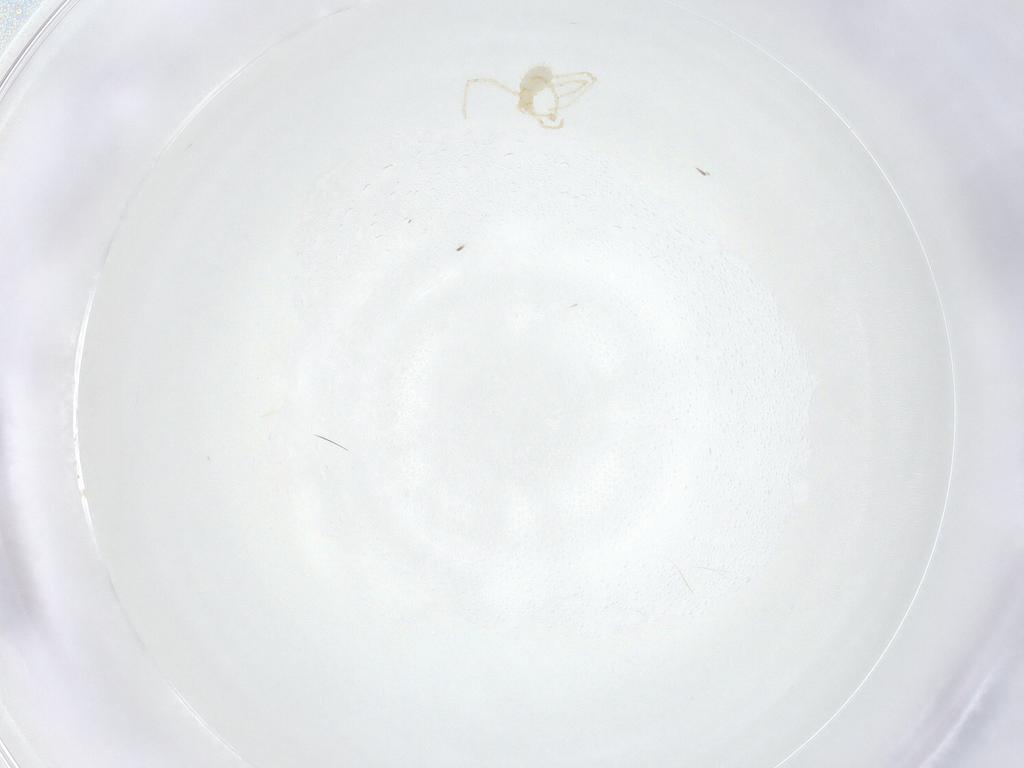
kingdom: Animalia
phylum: Arthropoda
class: Arachnida
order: Trombidiformes
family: Erythraeidae
